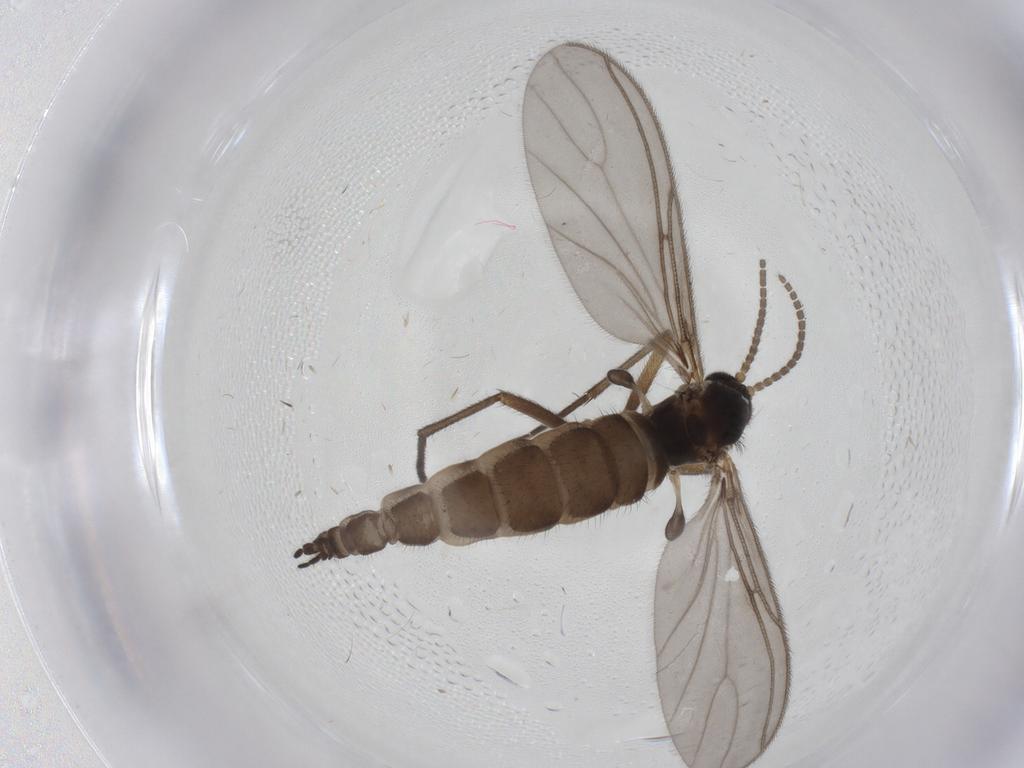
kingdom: Animalia
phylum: Arthropoda
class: Insecta
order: Diptera
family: Sciaridae
